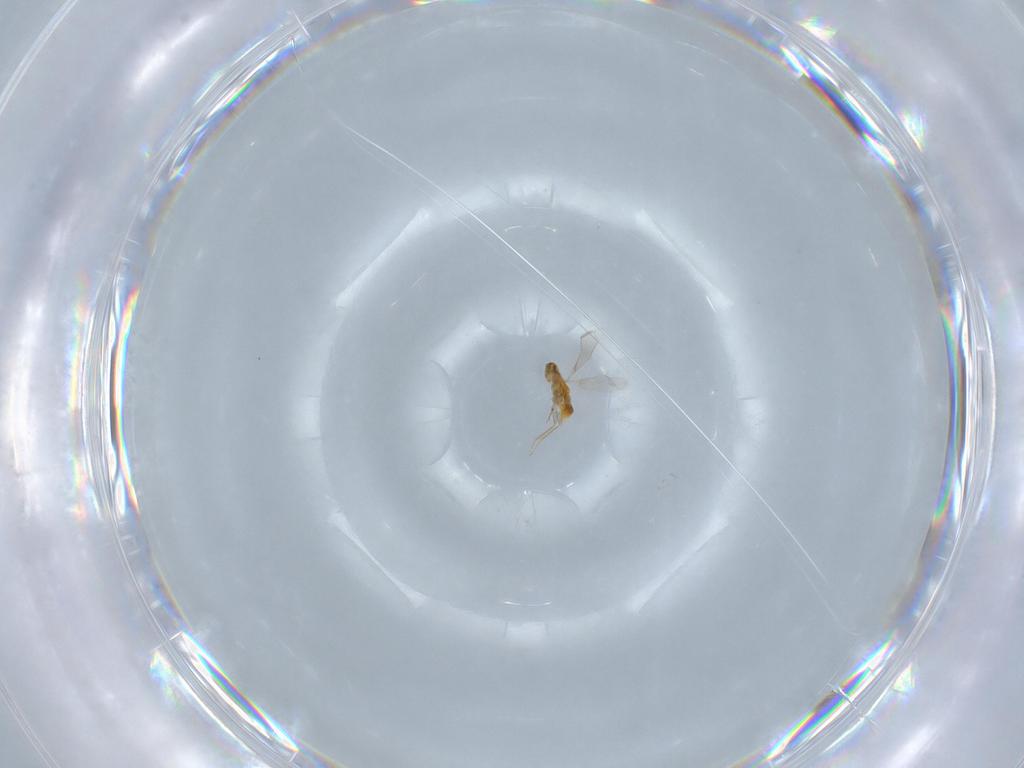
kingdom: Animalia
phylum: Arthropoda
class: Insecta
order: Hymenoptera
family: Aphelinidae
